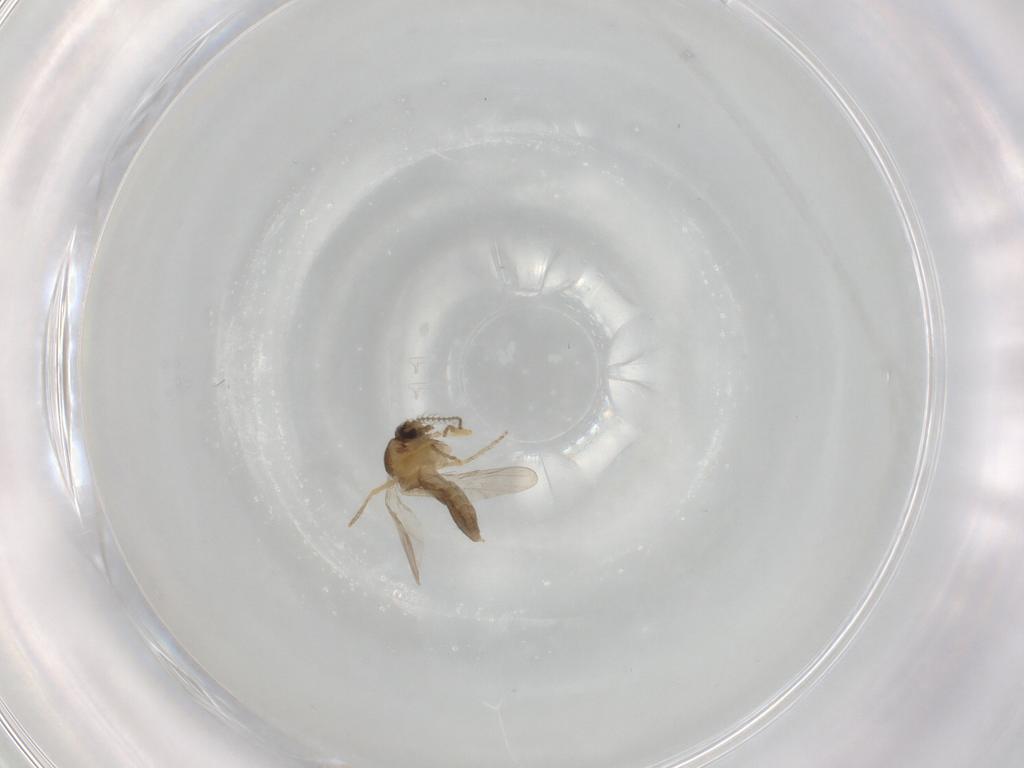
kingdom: Animalia
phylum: Arthropoda
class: Insecta
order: Diptera
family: Ceratopogonidae
